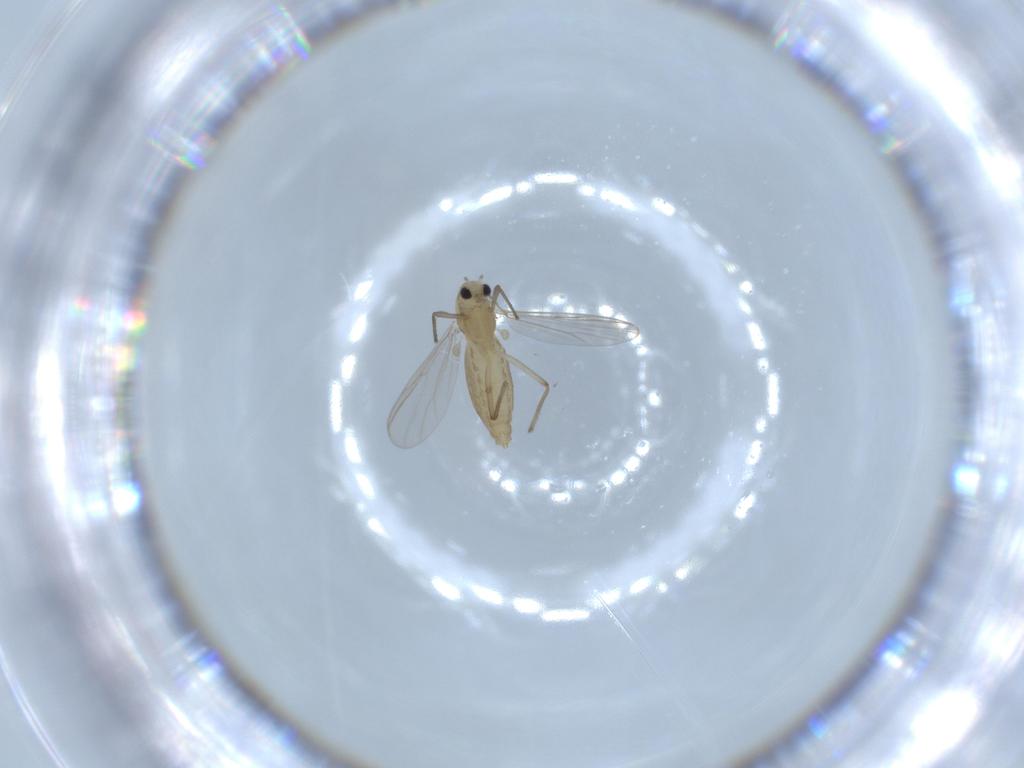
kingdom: Animalia
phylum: Arthropoda
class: Insecta
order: Diptera
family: Chironomidae
